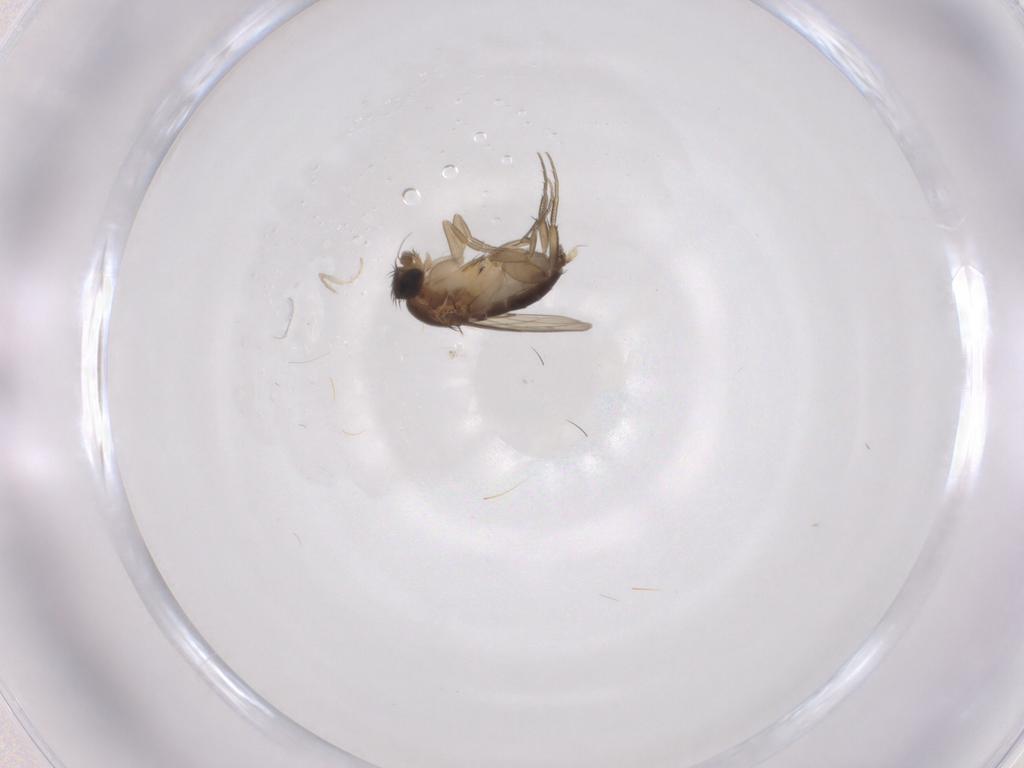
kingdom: Animalia
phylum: Arthropoda
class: Insecta
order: Diptera
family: Phoridae
